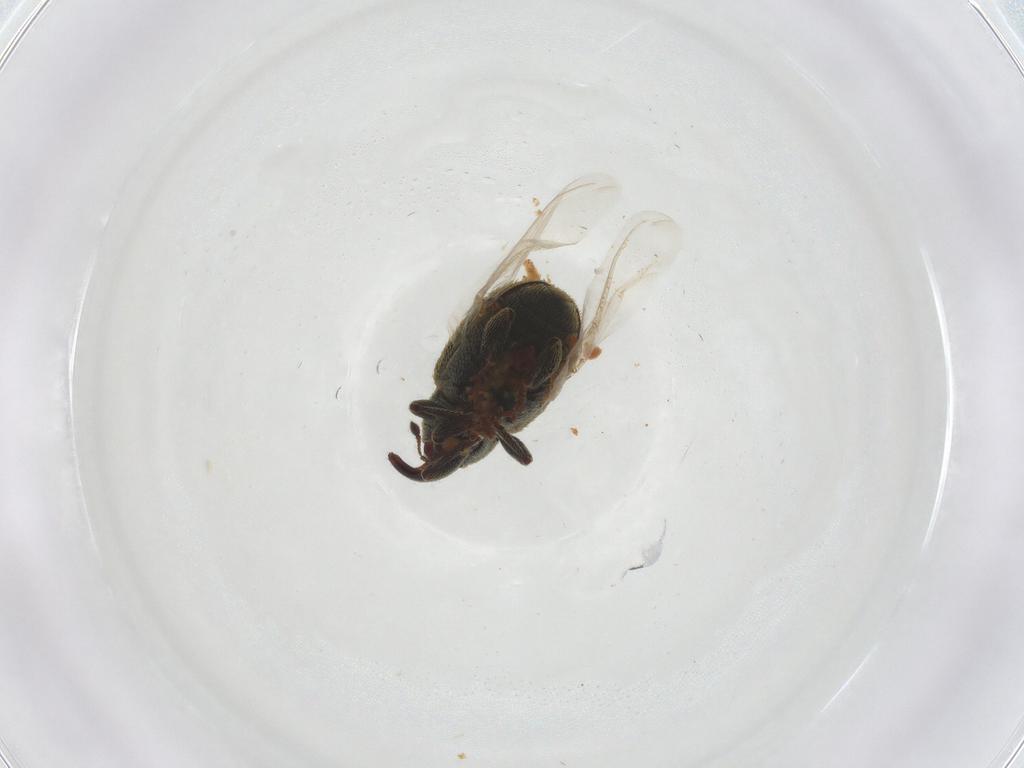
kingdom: Animalia
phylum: Arthropoda
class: Insecta
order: Coleoptera
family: Curculionidae
